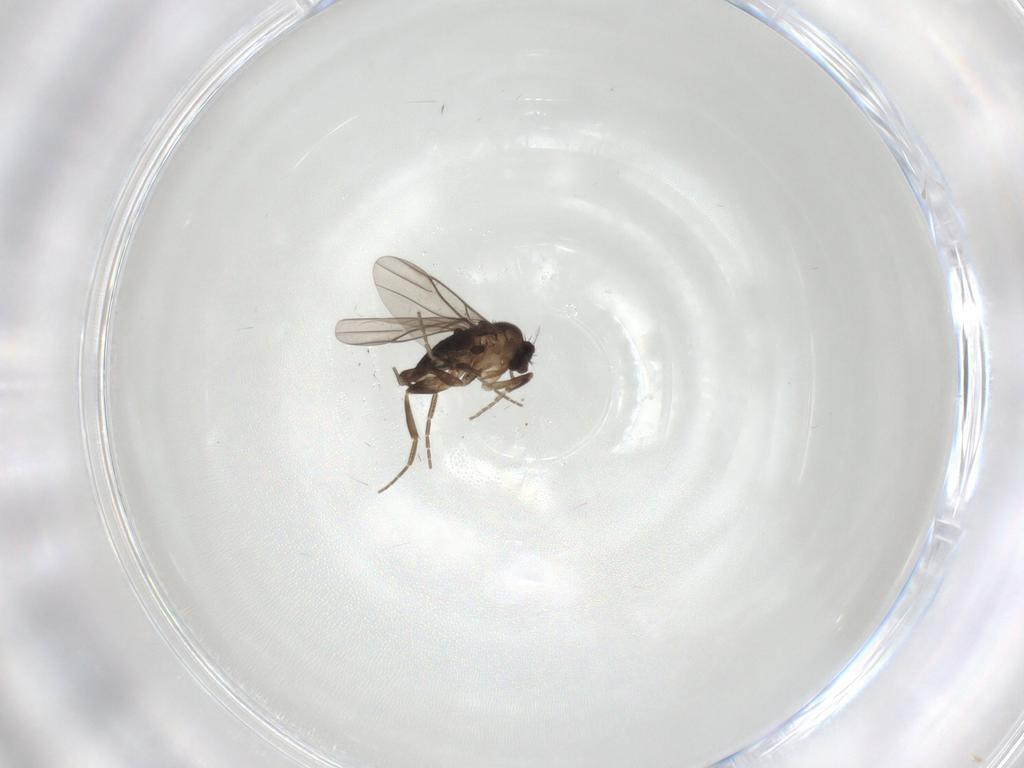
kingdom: Animalia
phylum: Arthropoda
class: Insecta
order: Diptera
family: Phoridae
